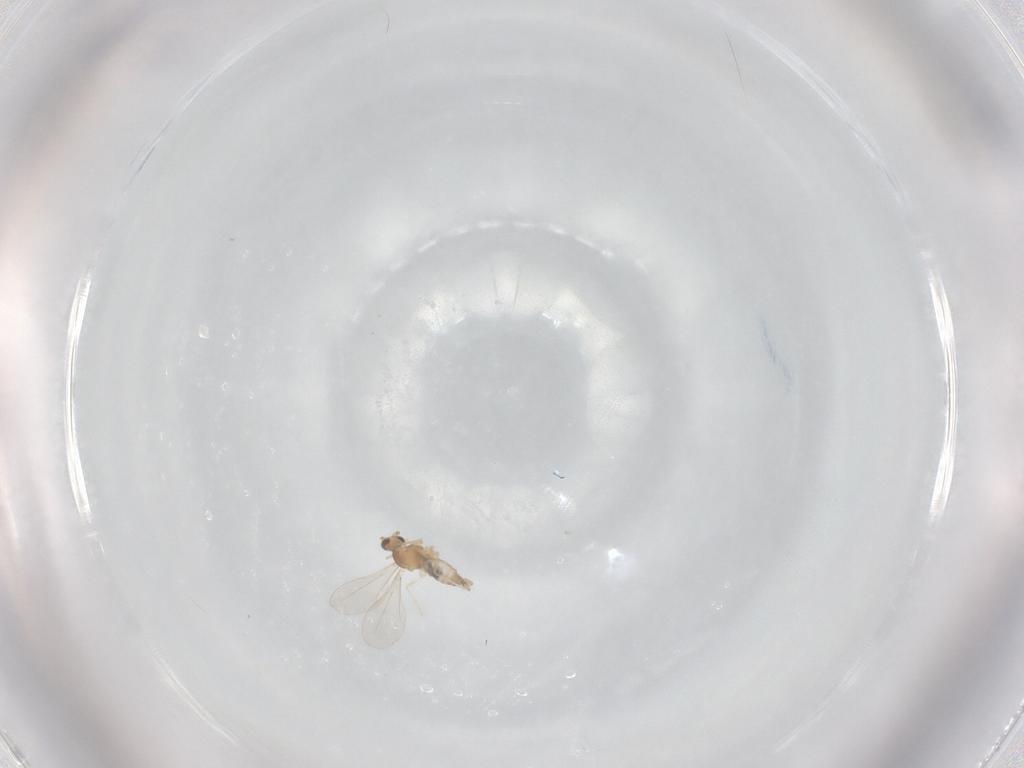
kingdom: Animalia
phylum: Arthropoda
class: Insecta
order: Diptera
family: Cecidomyiidae
